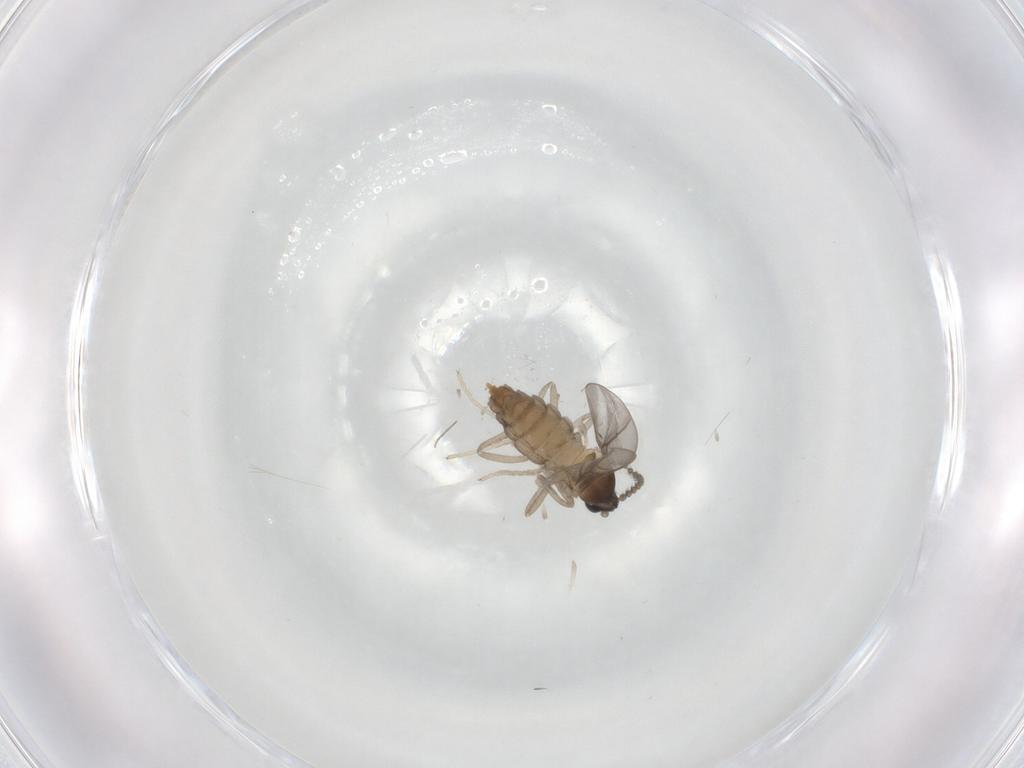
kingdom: Animalia
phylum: Arthropoda
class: Insecta
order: Diptera
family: Cecidomyiidae
